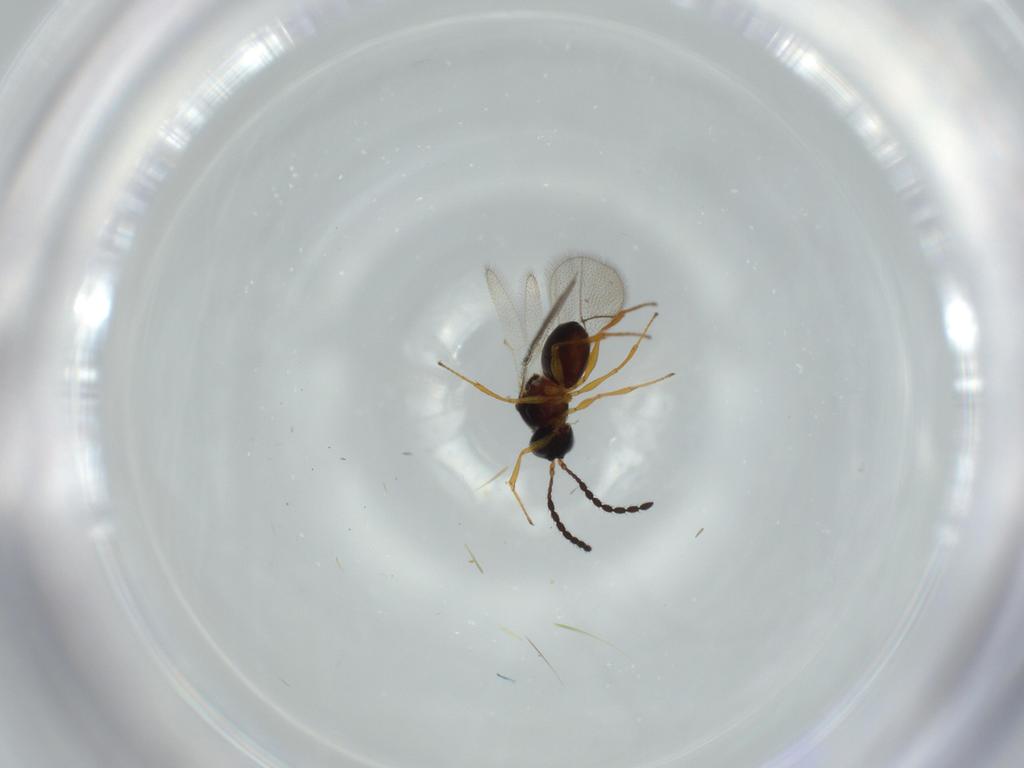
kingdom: Animalia
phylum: Arthropoda
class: Insecta
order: Hymenoptera
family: Figitidae
